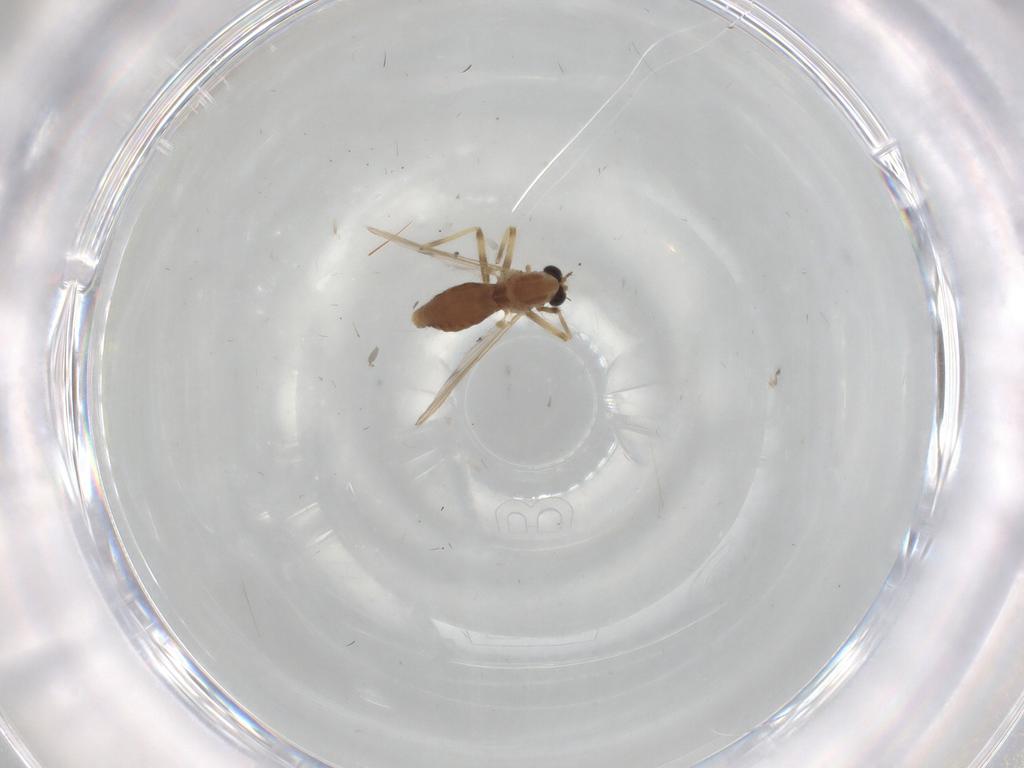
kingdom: Animalia
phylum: Arthropoda
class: Insecta
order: Diptera
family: Chironomidae
